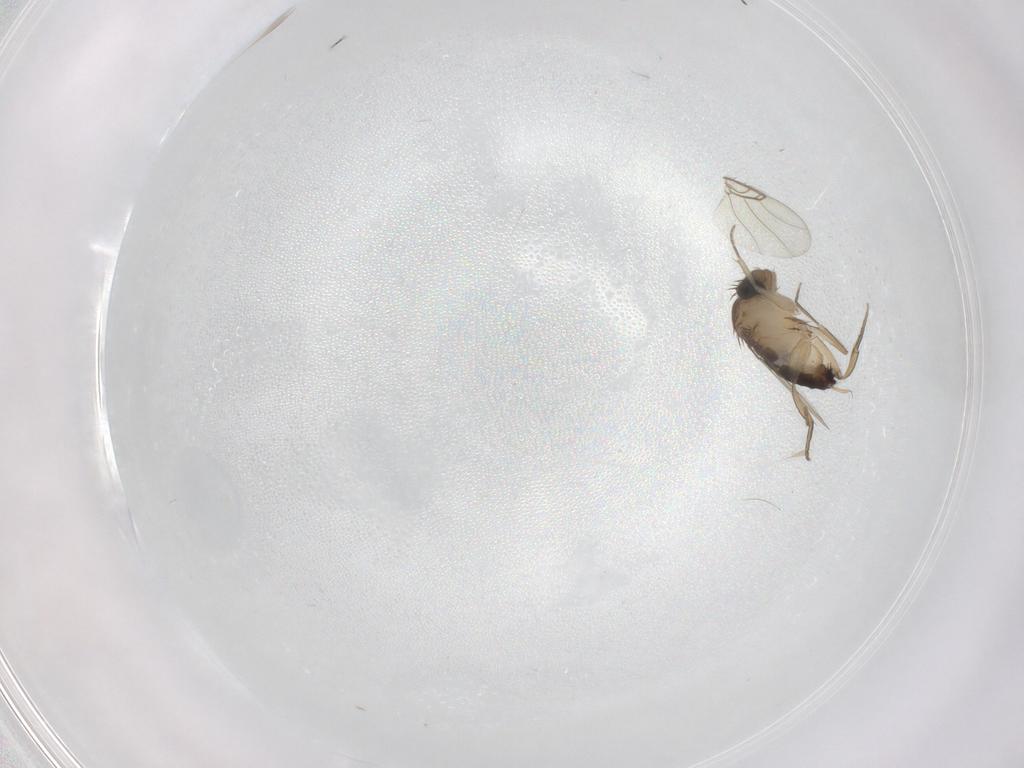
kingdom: Animalia
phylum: Arthropoda
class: Insecta
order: Diptera
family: Phoridae
